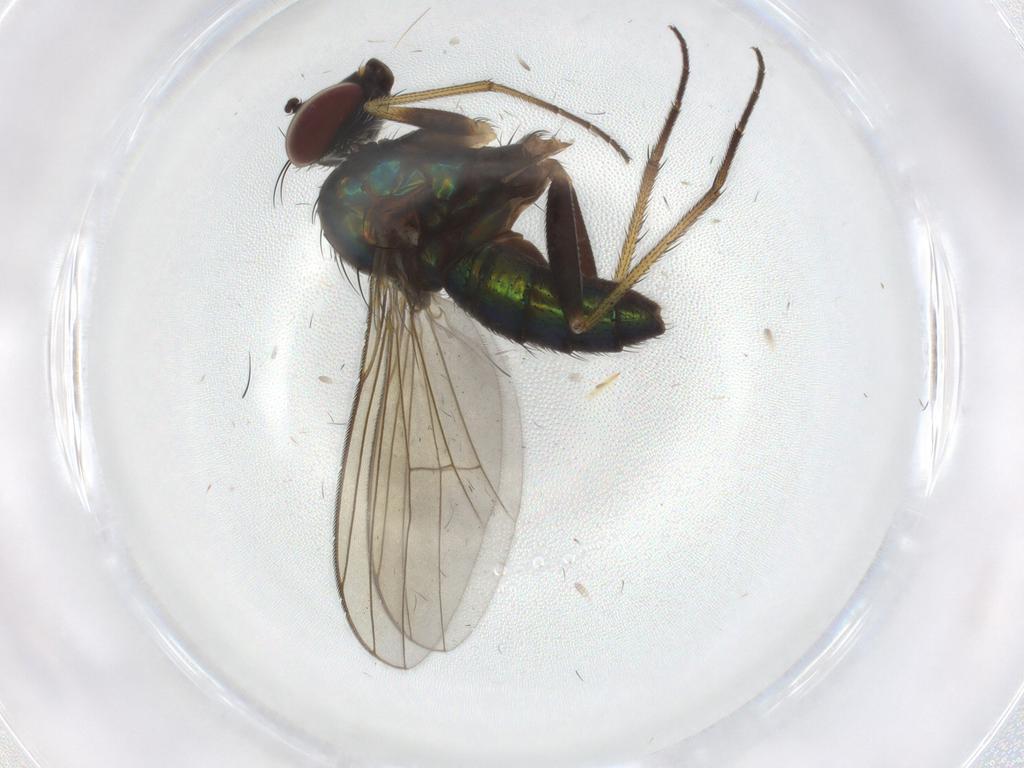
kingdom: Animalia
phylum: Arthropoda
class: Insecta
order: Diptera
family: Dolichopodidae
